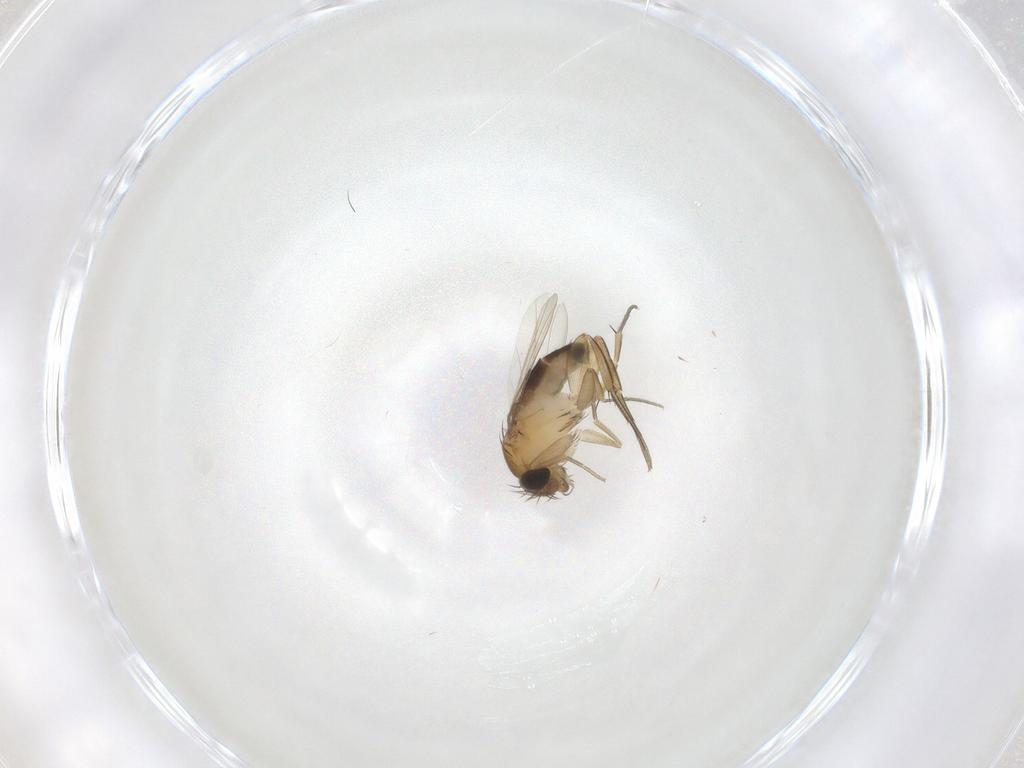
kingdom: Animalia
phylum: Arthropoda
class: Insecta
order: Diptera
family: Phoridae
